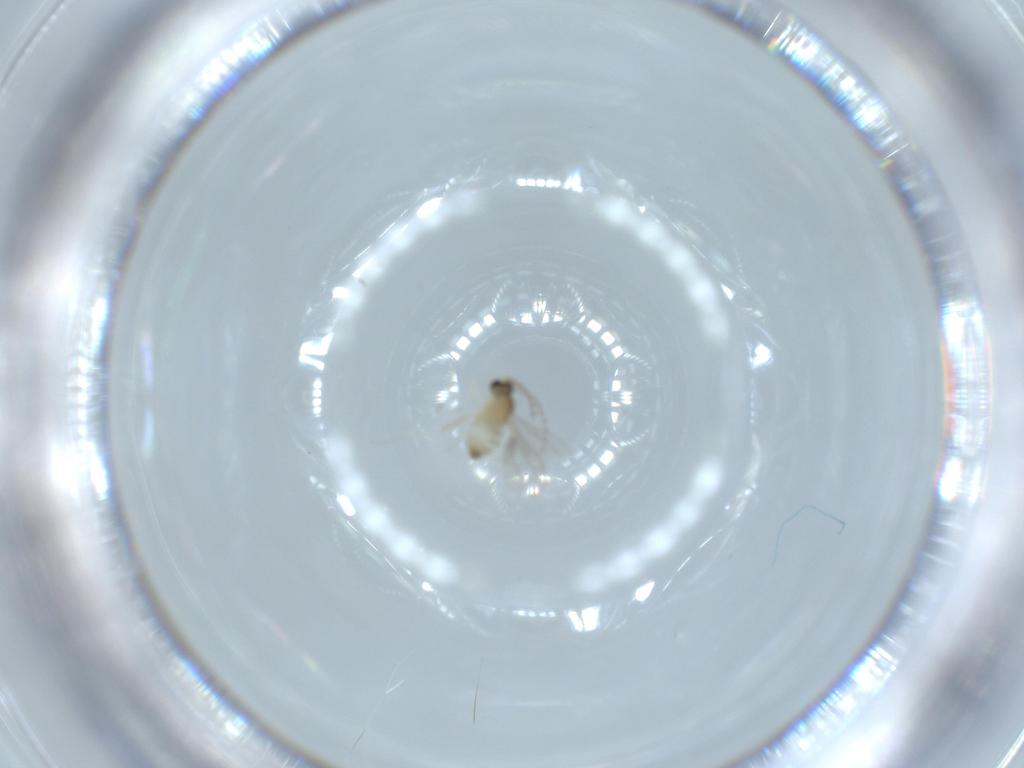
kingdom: Animalia
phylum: Arthropoda
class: Insecta
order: Diptera
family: Cecidomyiidae
